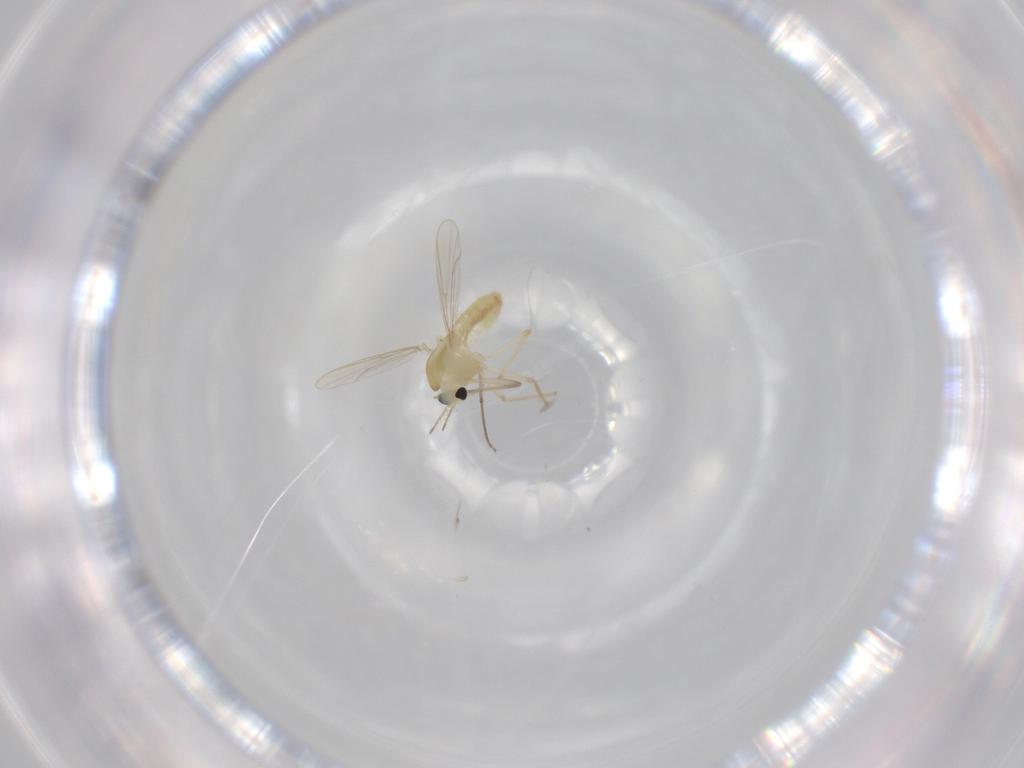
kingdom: Animalia
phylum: Arthropoda
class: Insecta
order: Diptera
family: Chironomidae
